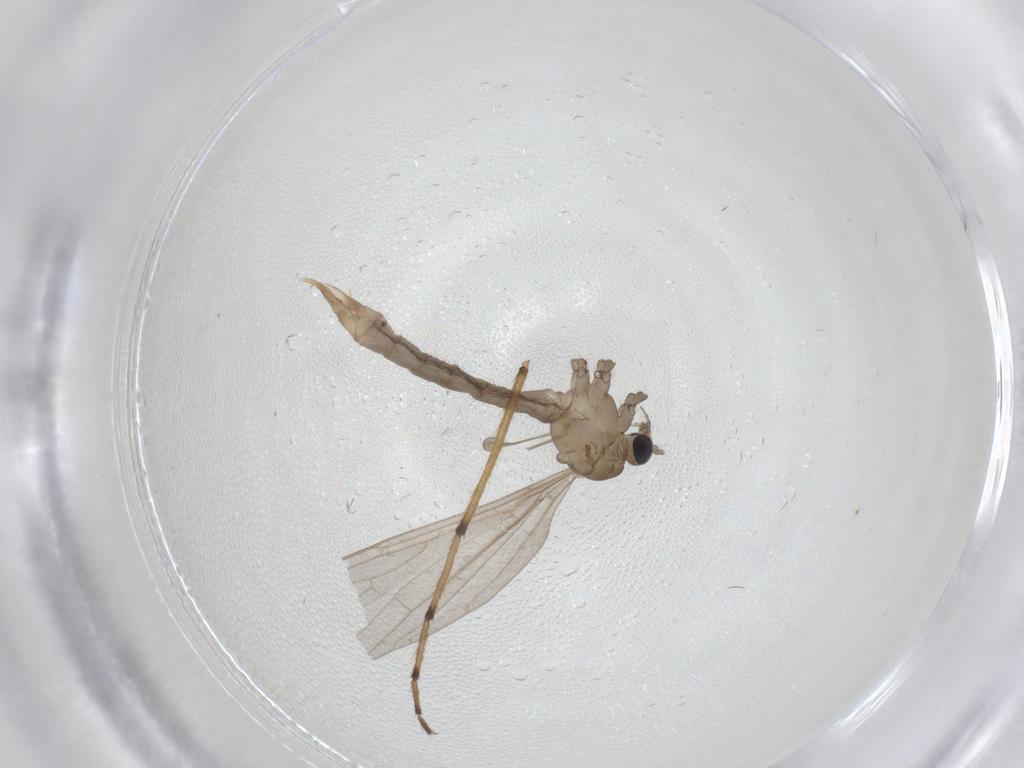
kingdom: Animalia
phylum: Arthropoda
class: Insecta
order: Diptera
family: Limoniidae
